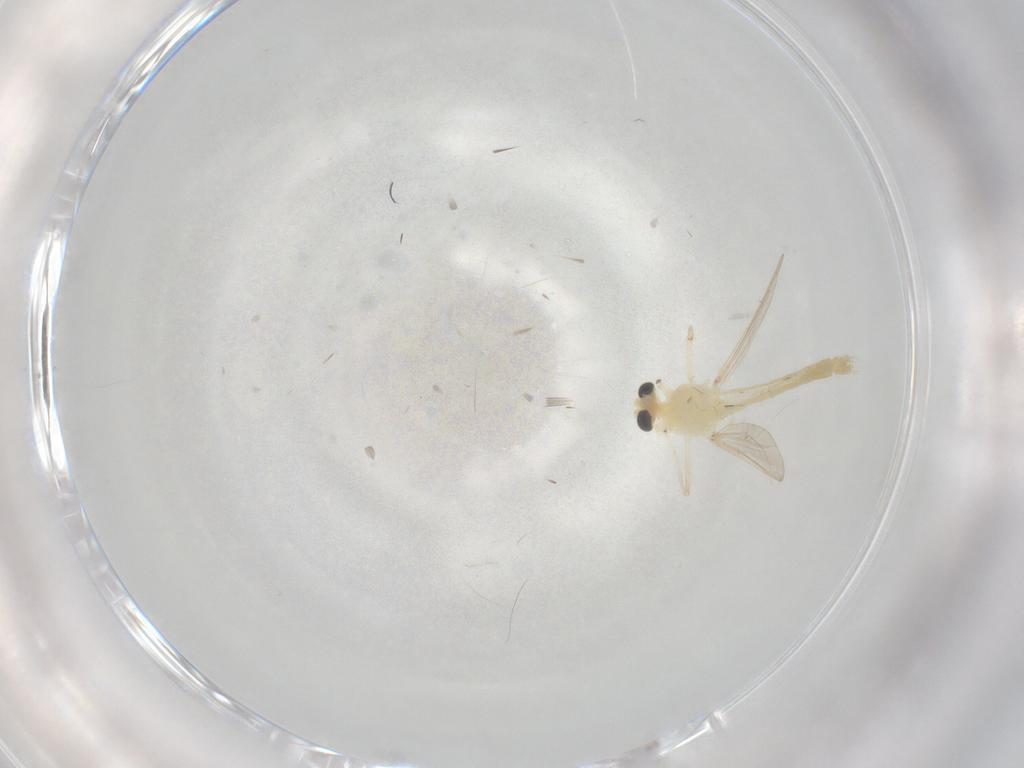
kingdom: Animalia
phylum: Arthropoda
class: Insecta
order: Diptera
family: Chironomidae
